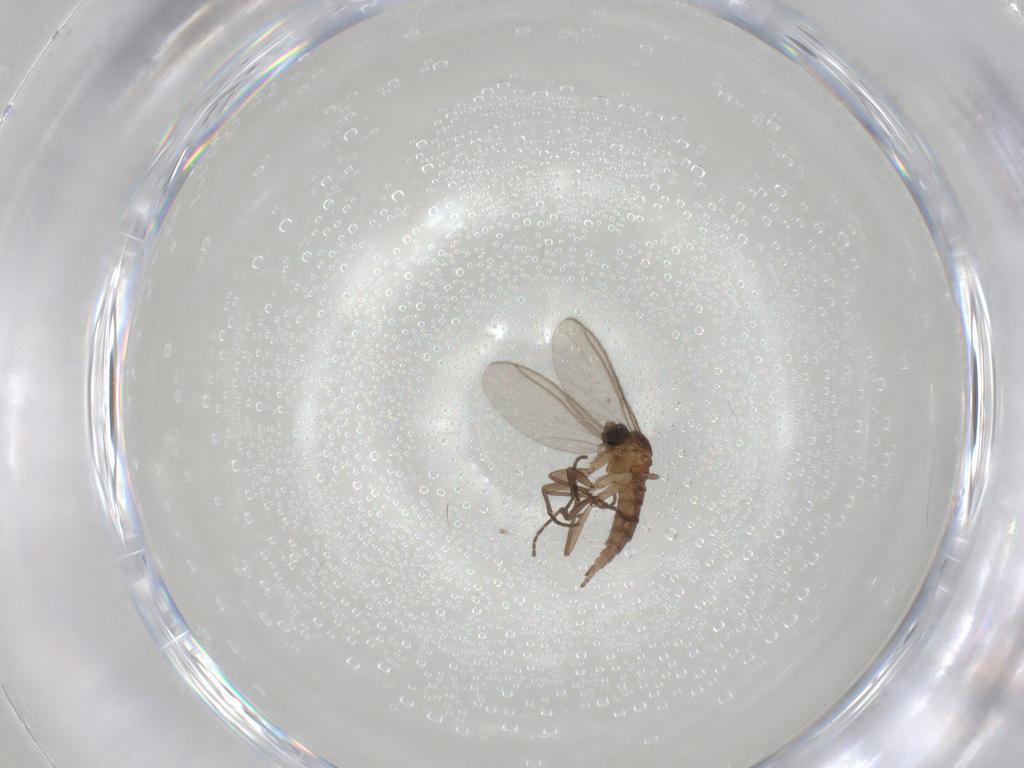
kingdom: Animalia
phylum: Arthropoda
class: Insecta
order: Diptera
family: Sciaridae
